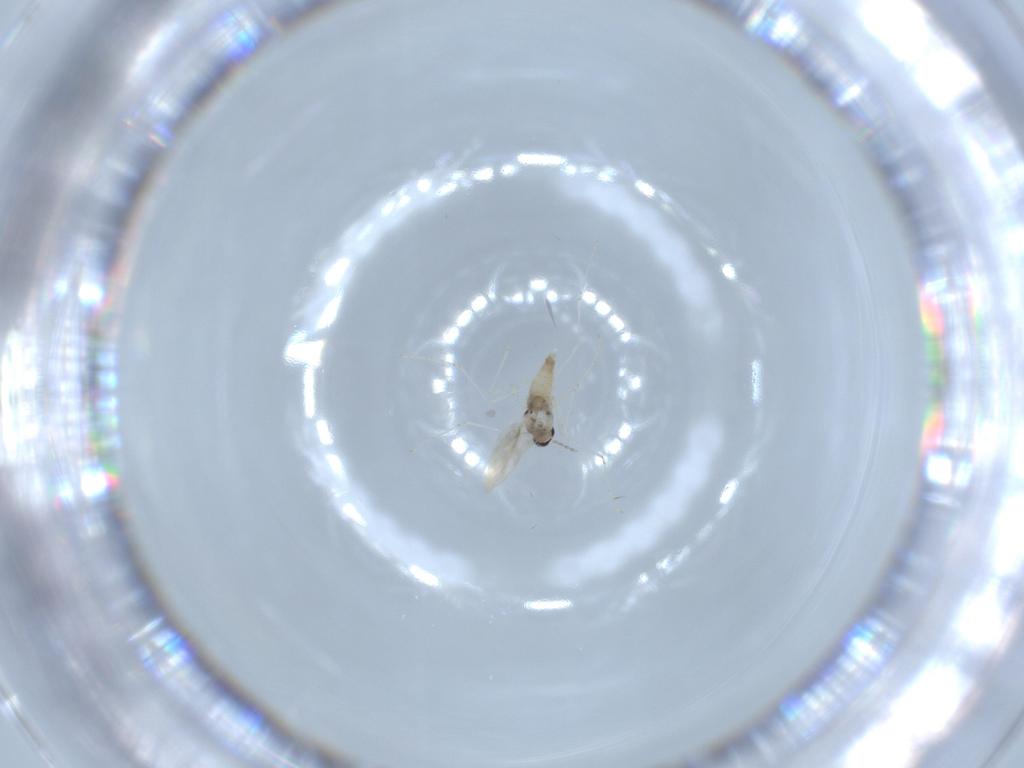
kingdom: Animalia
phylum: Arthropoda
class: Insecta
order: Diptera
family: Cecidomyiidae
